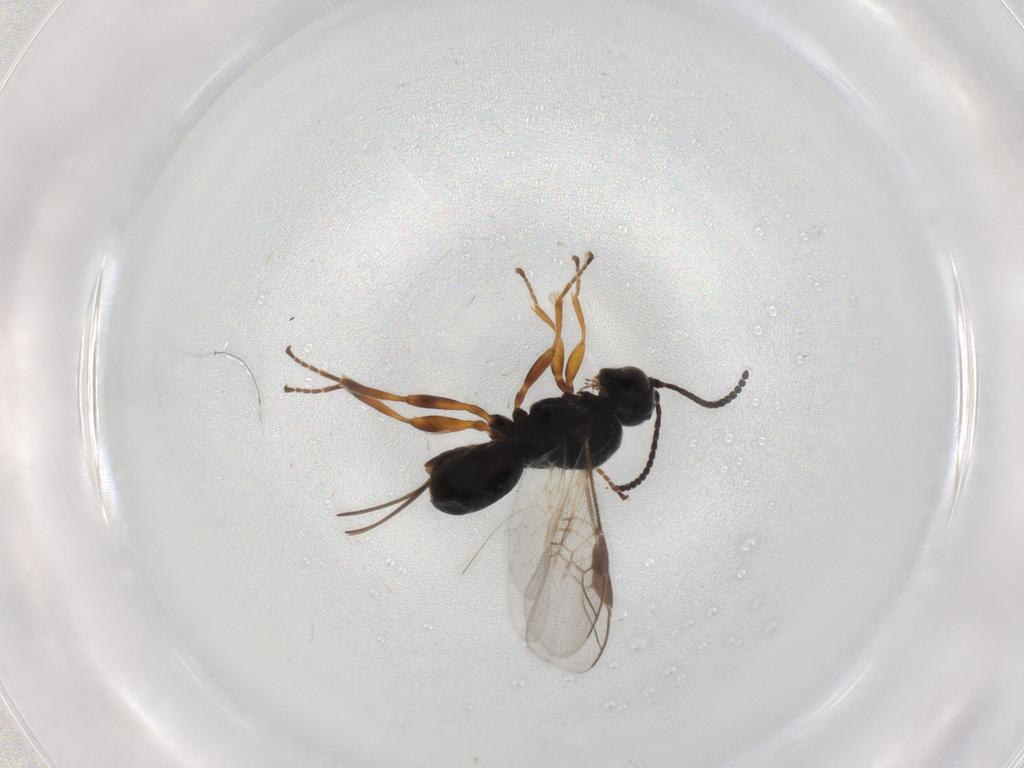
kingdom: Animalia
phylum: Arthropoda
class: Insecta
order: Hymenoptera
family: Braconidae
